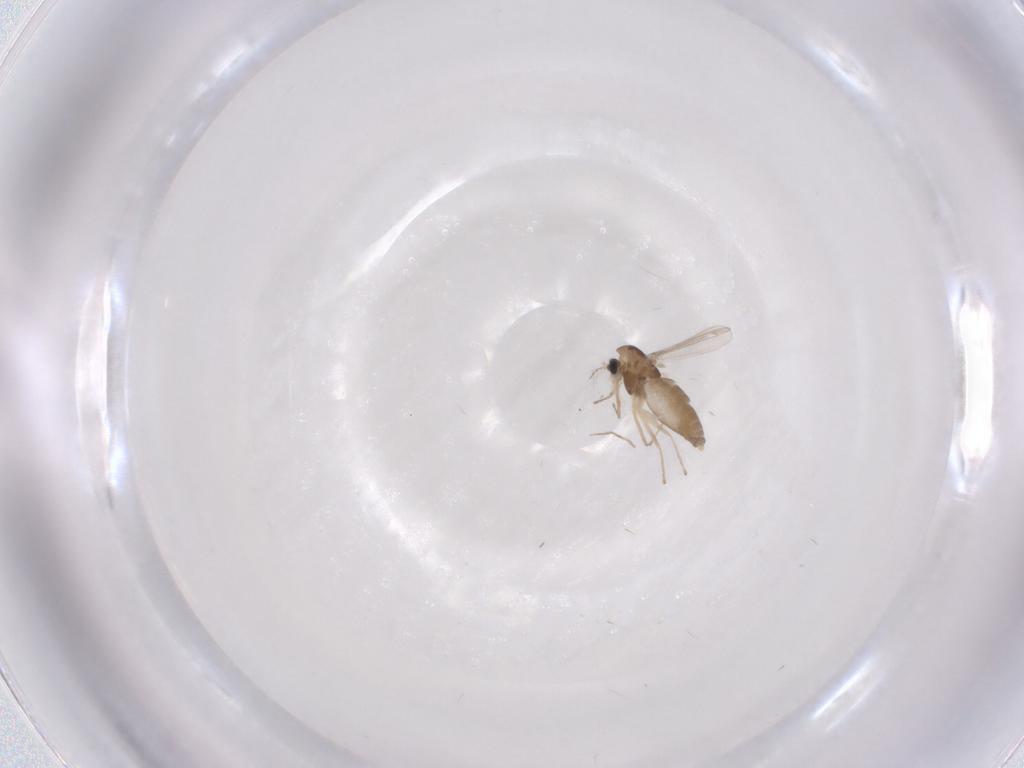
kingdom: Animalia
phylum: Arthropoda
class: Insecta
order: Diptera
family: Chironomidae
